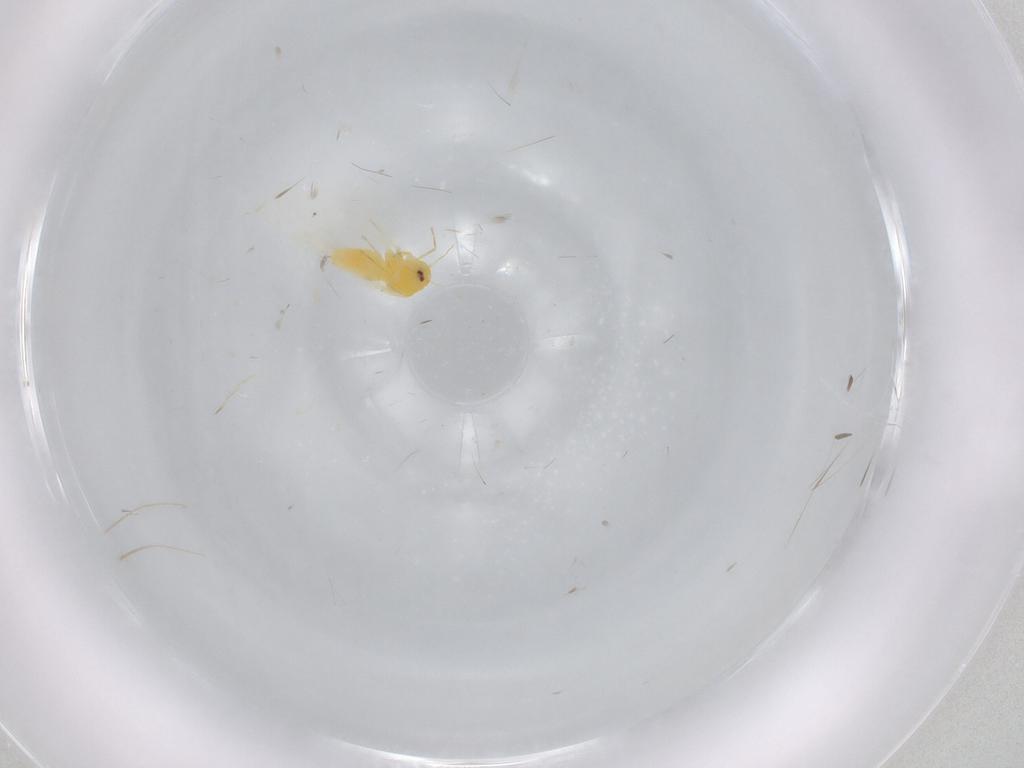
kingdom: Animalia
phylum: Arthropoda
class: Insecta
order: Hemiptera
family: Aleyrodidae
